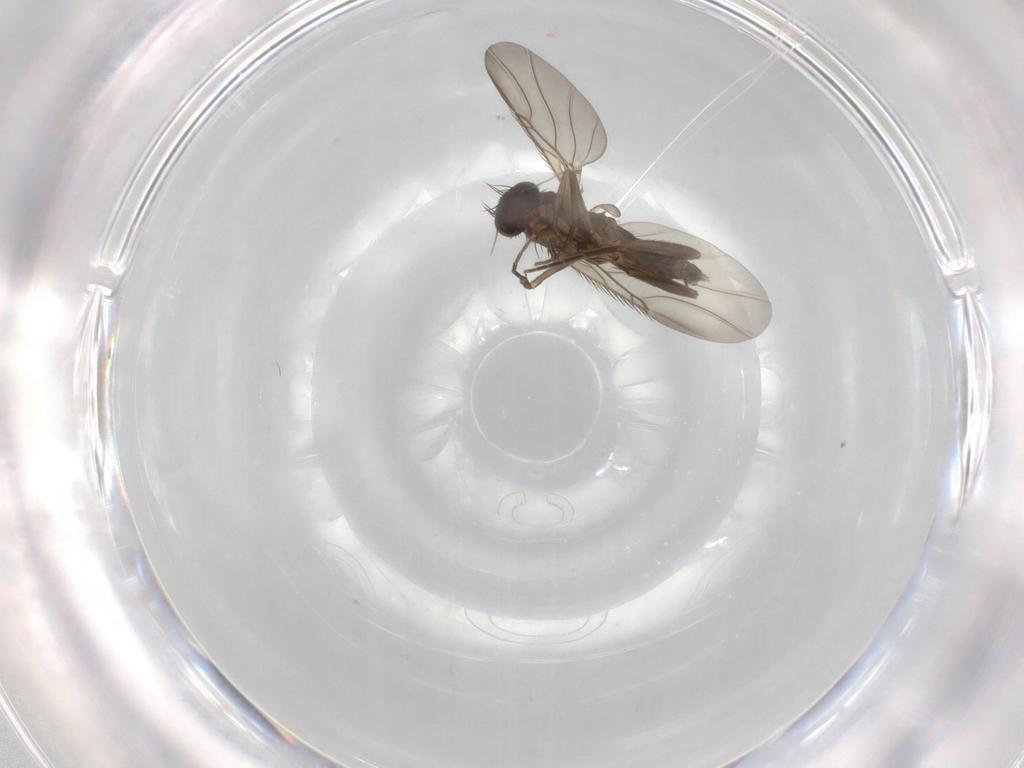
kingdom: Animalia
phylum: Arthropoda
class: Insecta
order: Diptera
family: Phoridae
